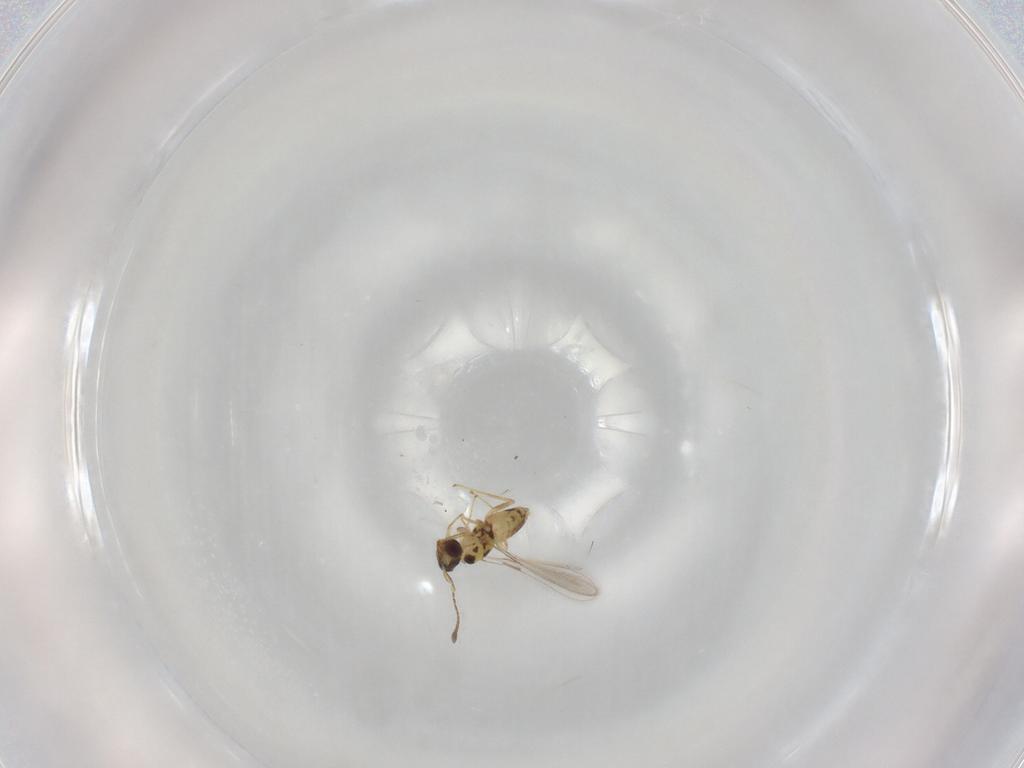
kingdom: Animalia
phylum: Arthropoda
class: Insecta
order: Hymenoptera
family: Mymaridae
